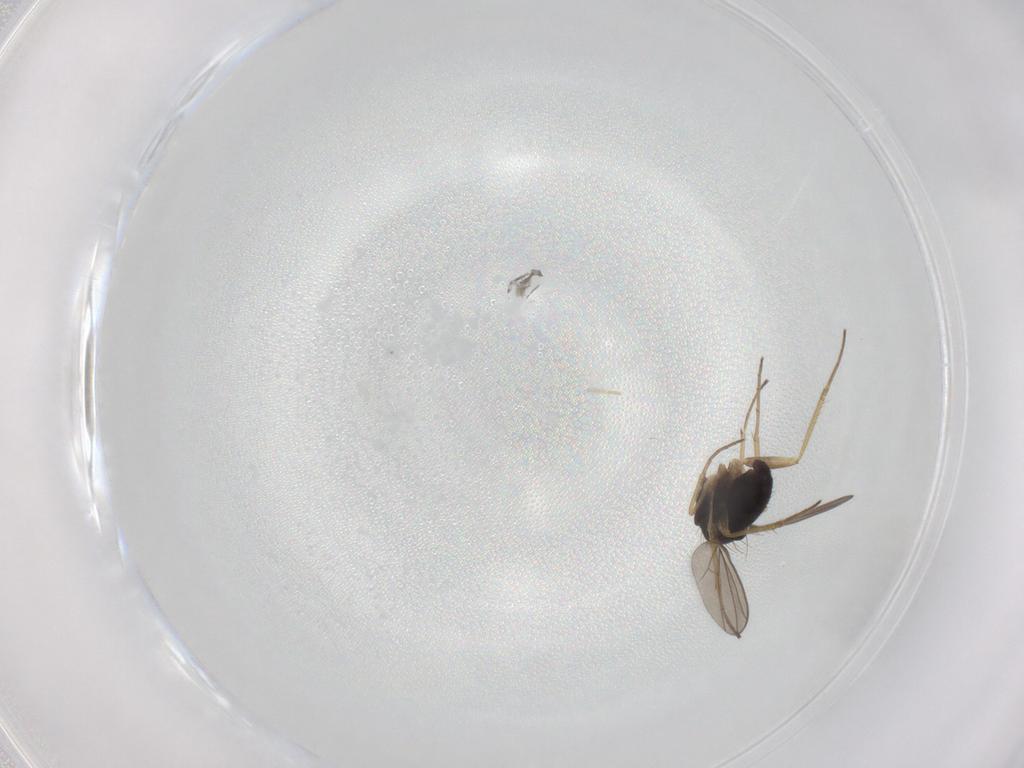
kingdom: Animalia
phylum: Arthropoda
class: Insecta
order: Diptera
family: Dolichopodidae
